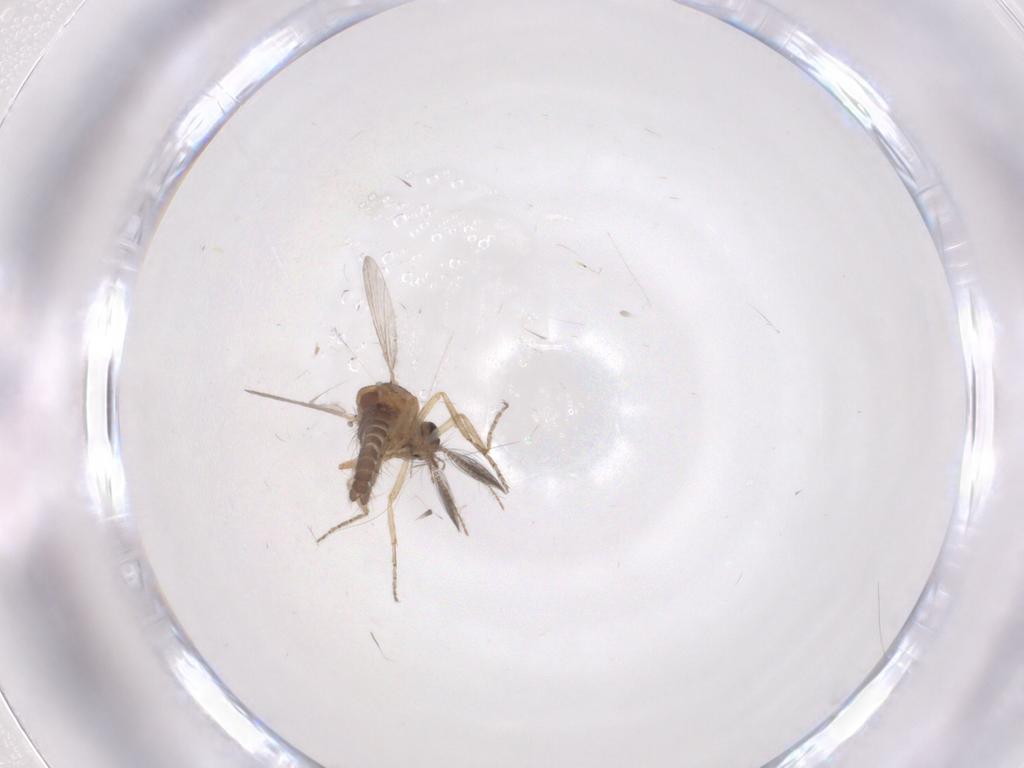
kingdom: Animalia
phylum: Arthropoda
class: Insecta
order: Diptera
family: Ceratopogonidae
